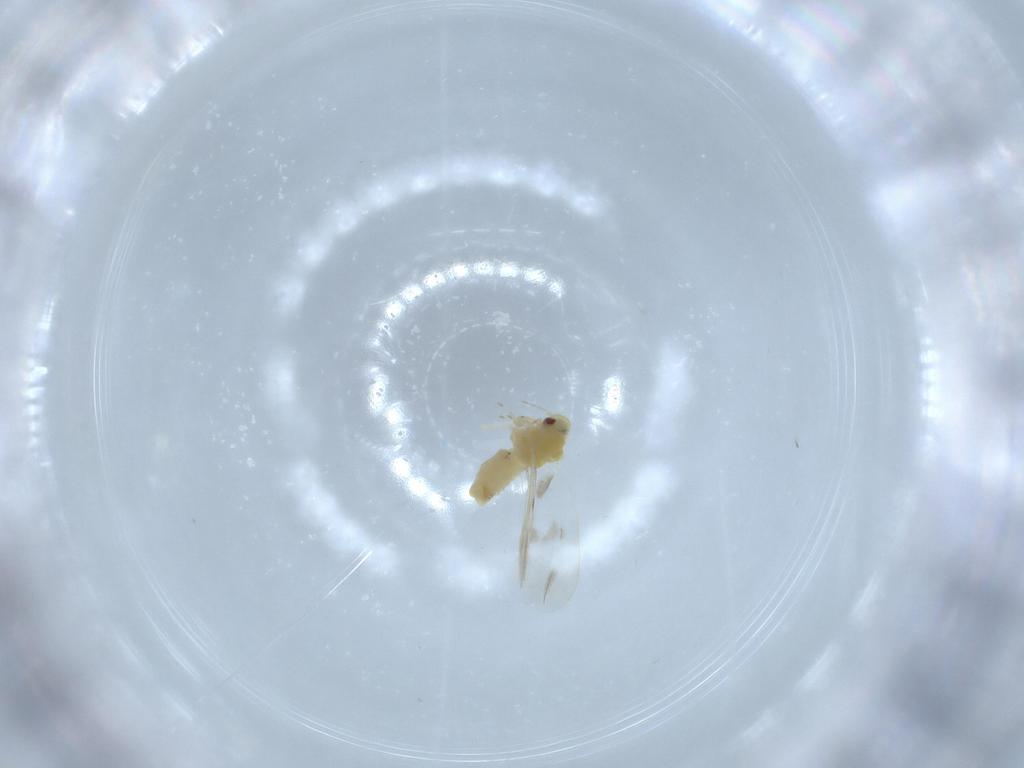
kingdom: Animalia
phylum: Arthropoda
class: Insecta
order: Hemiptera
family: Aleyrodidae
